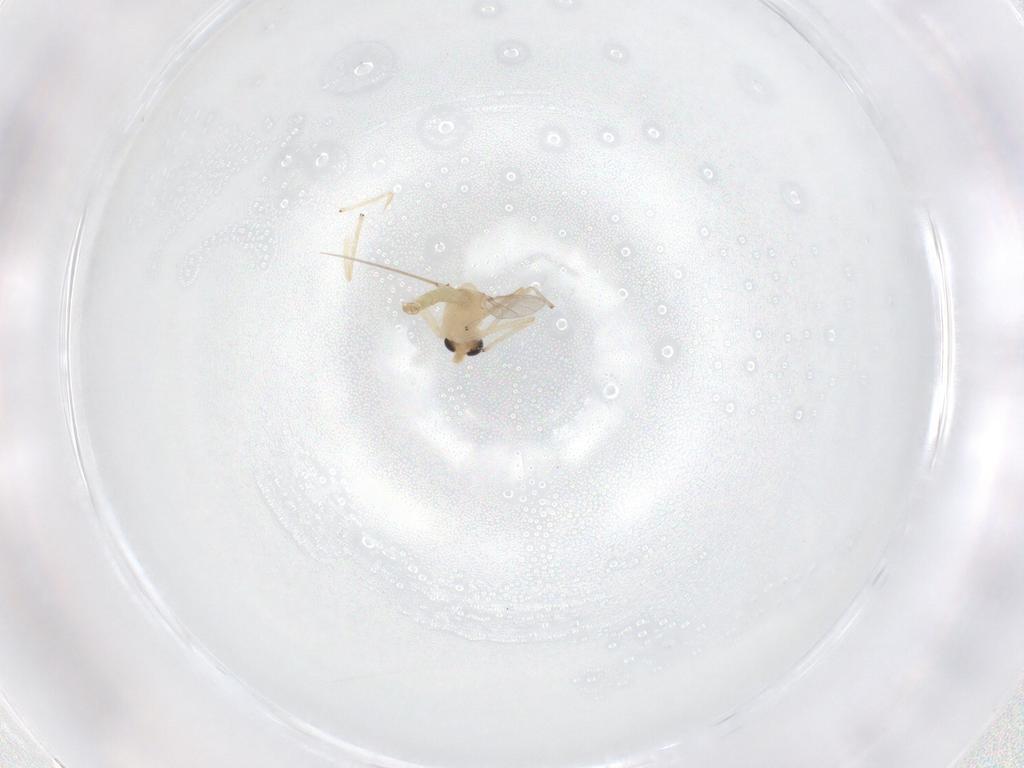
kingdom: Animalia
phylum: Arthropoda
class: Insecta
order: Diptera
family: Chironomidae
